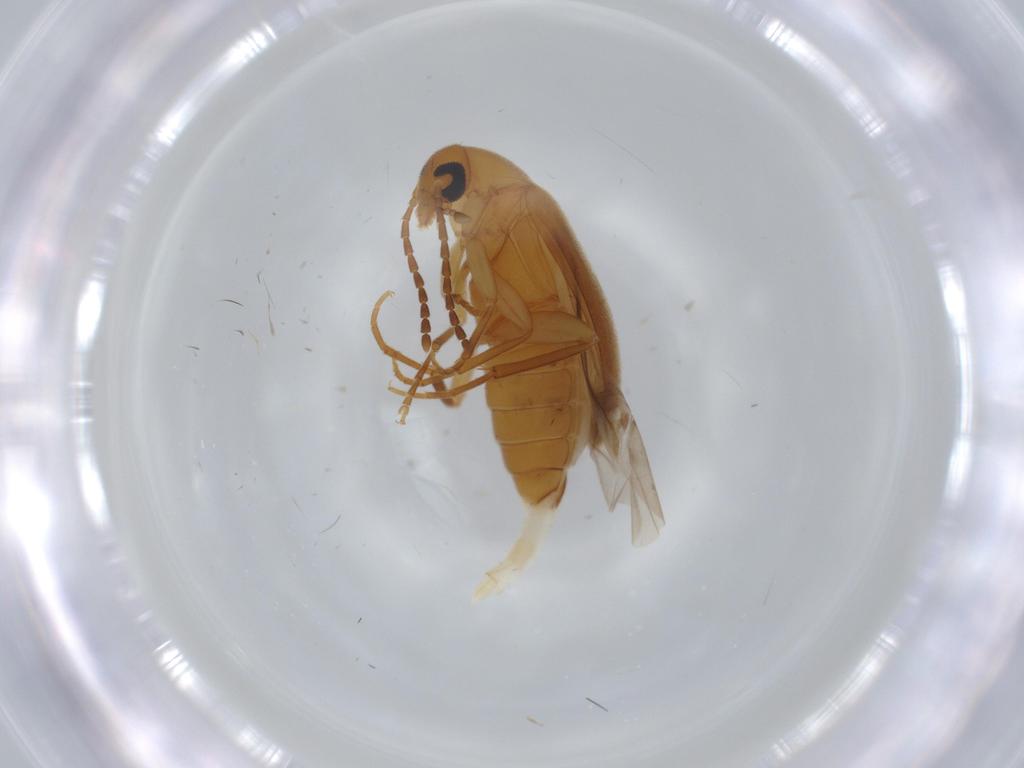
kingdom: Animalia
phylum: Arthropoda
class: Insecta
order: Coleoptera
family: Scraptiidae
